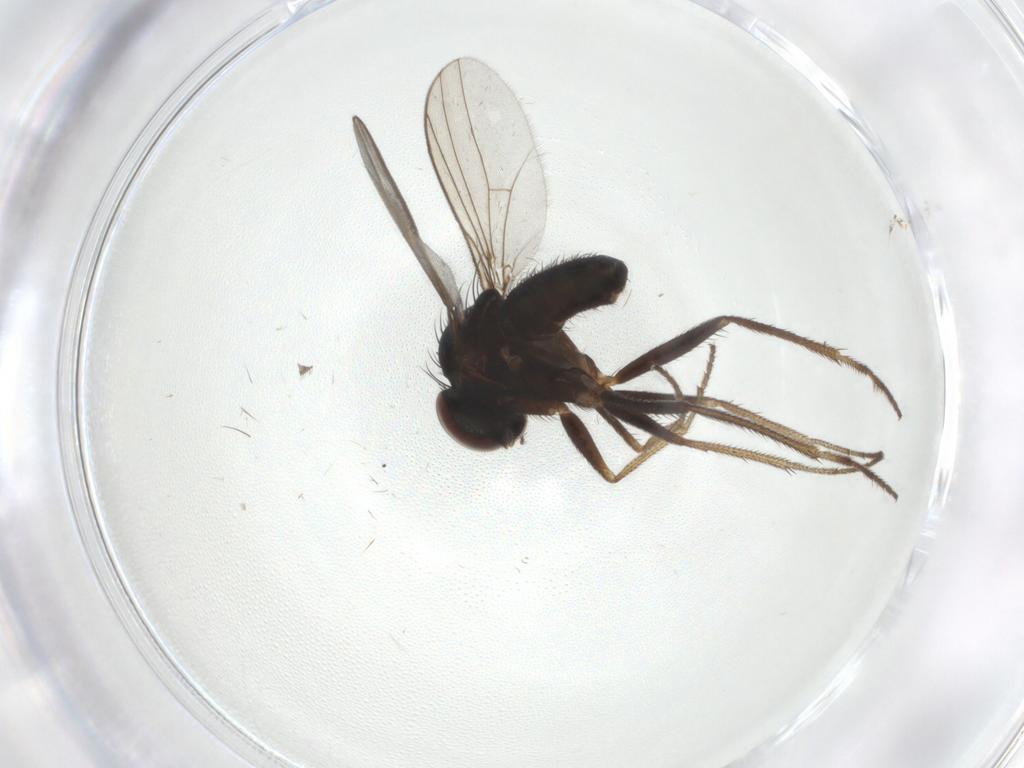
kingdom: Animalia
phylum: Arthropoda
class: Insecta
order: Diptera
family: Dolichopodidae
